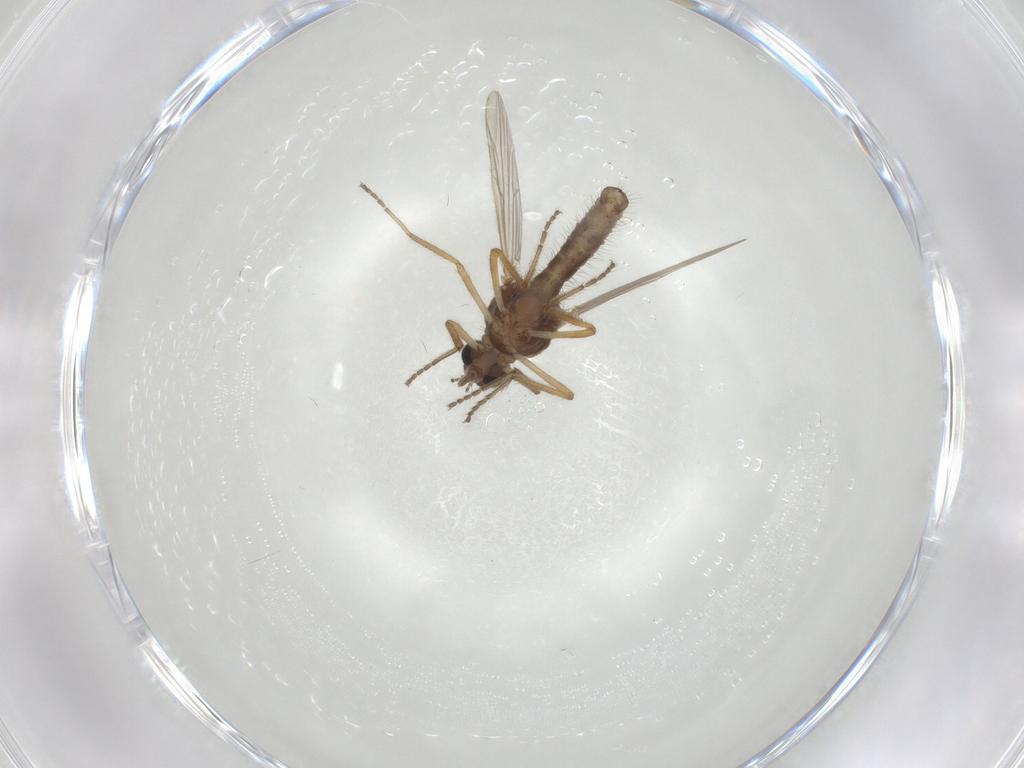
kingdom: Animalia
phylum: Arthropoda
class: Insecta
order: Diptera
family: Ceratopogonidae
